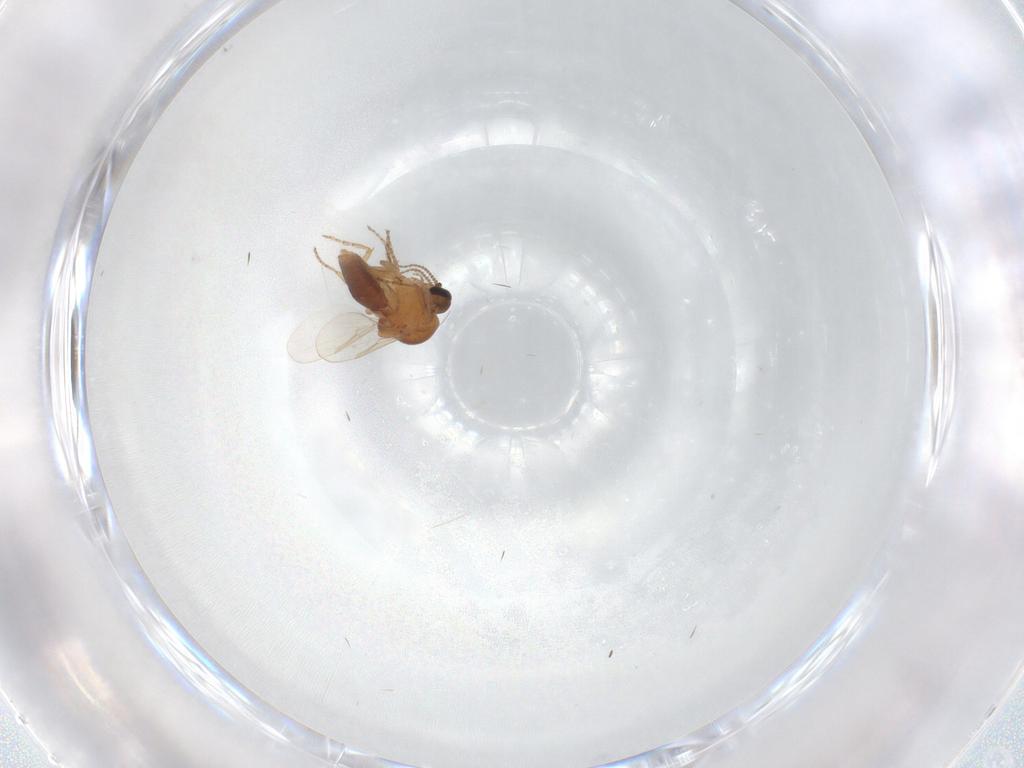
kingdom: Animalia
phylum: Arthropoda
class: Insecta
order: Diptera
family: Ceratopogonidae
